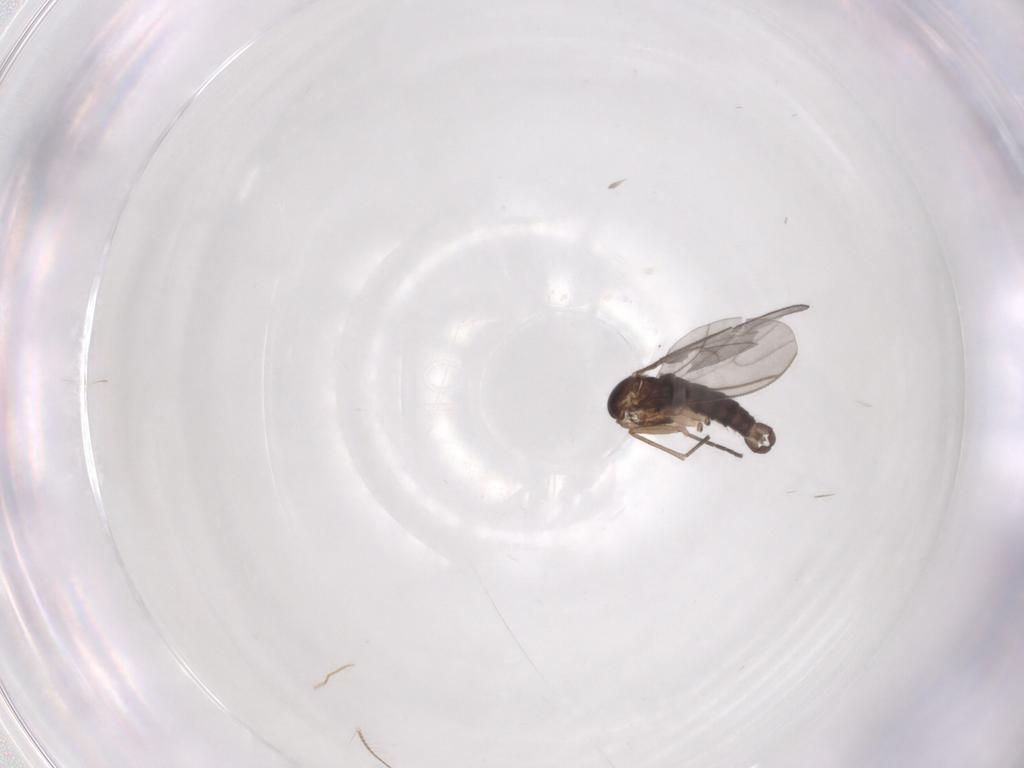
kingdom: Animalia
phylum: Arthropoda
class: Insecta
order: Diptera
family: Sciaridae
